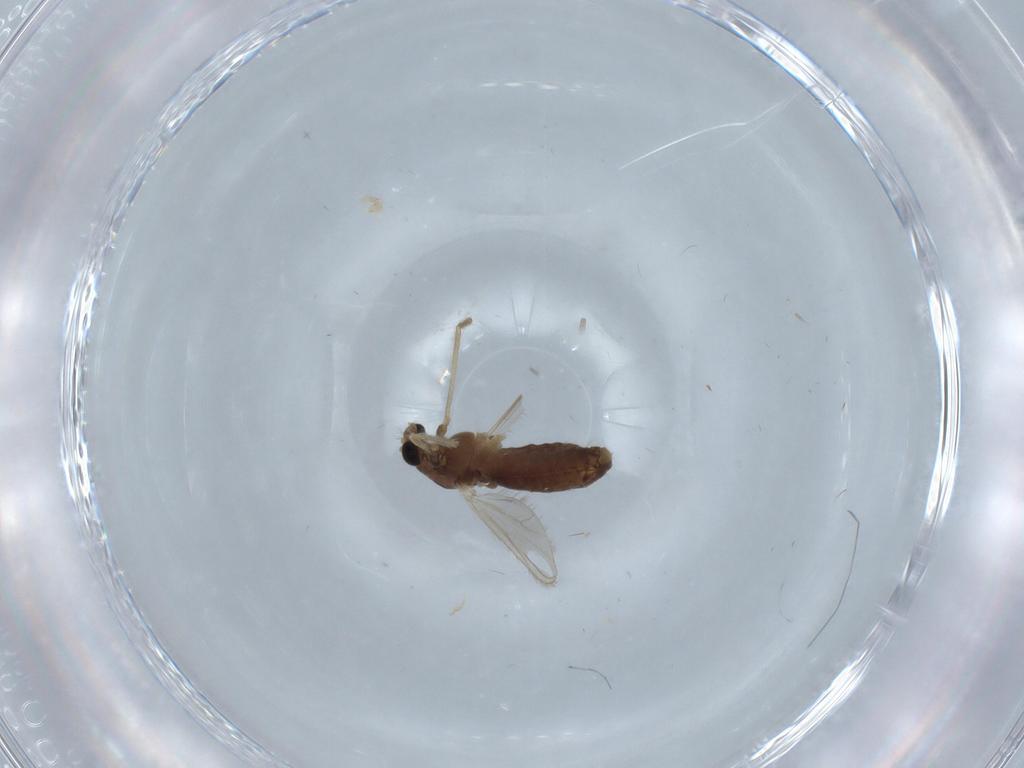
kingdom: Animalia
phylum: Arthropoda
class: Insecta
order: Diptera
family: Chironomidae
